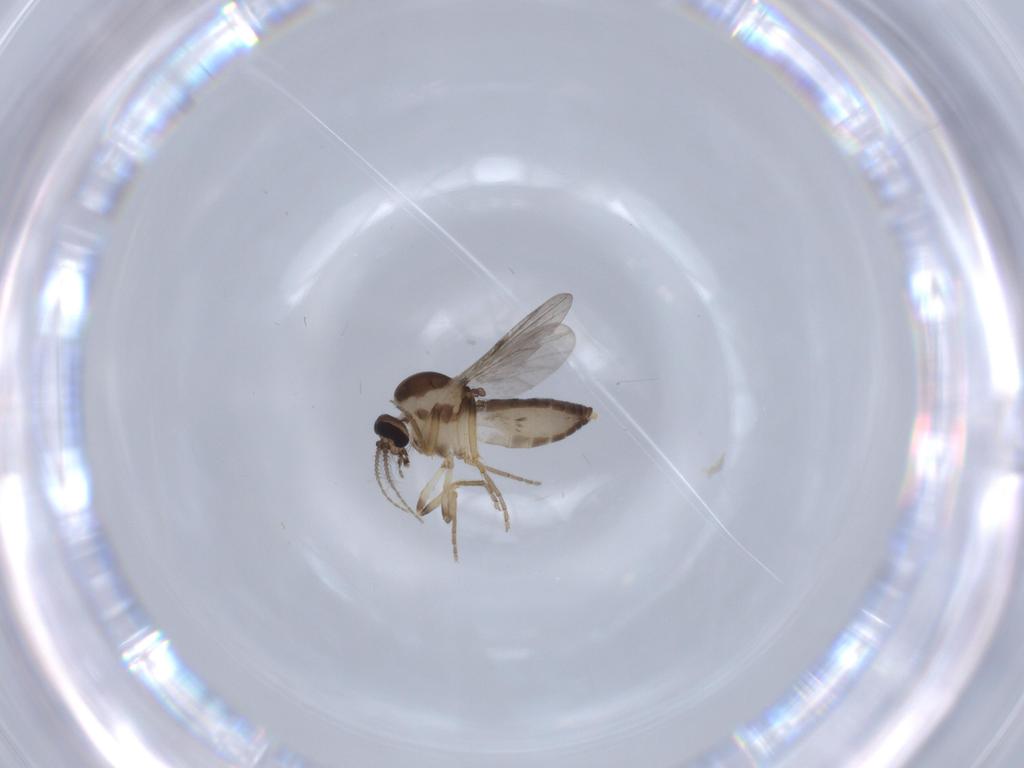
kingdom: Animalia
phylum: Arthropoda
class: Insecta
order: Diptera
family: Ceratopogonidae
